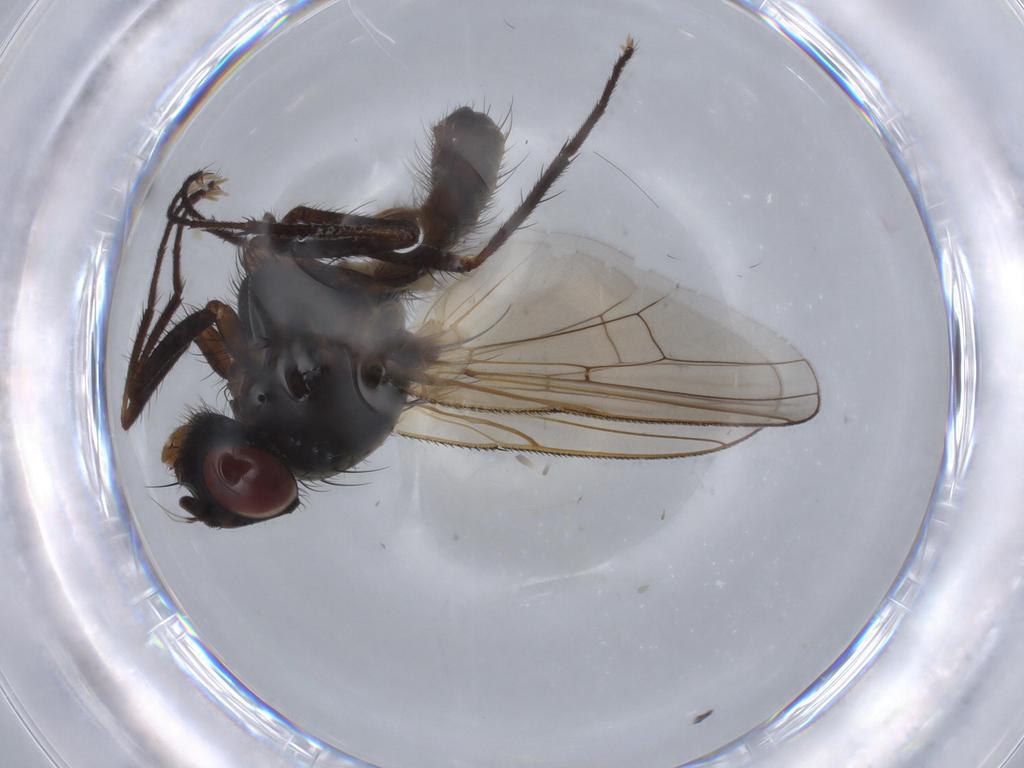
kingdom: Animalia
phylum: Arthropoda
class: Insecta
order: Diptera
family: Anthomyiidae
